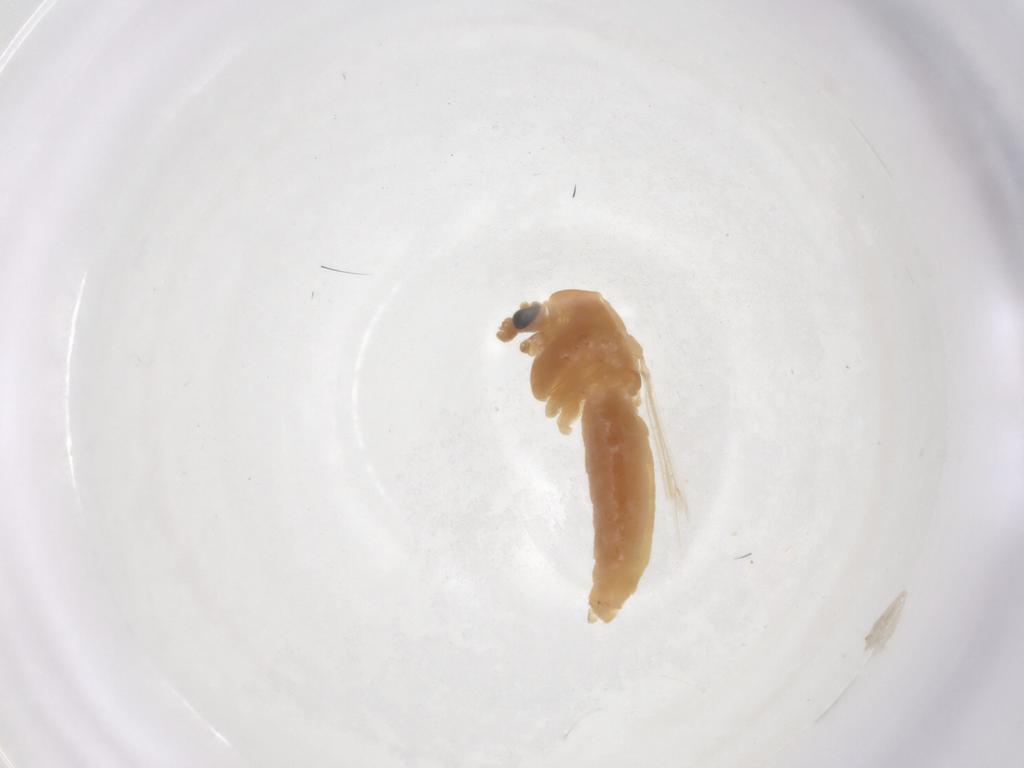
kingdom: Animalia
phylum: Arthropoda
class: Insecta
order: Diptera
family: Chironomidae
